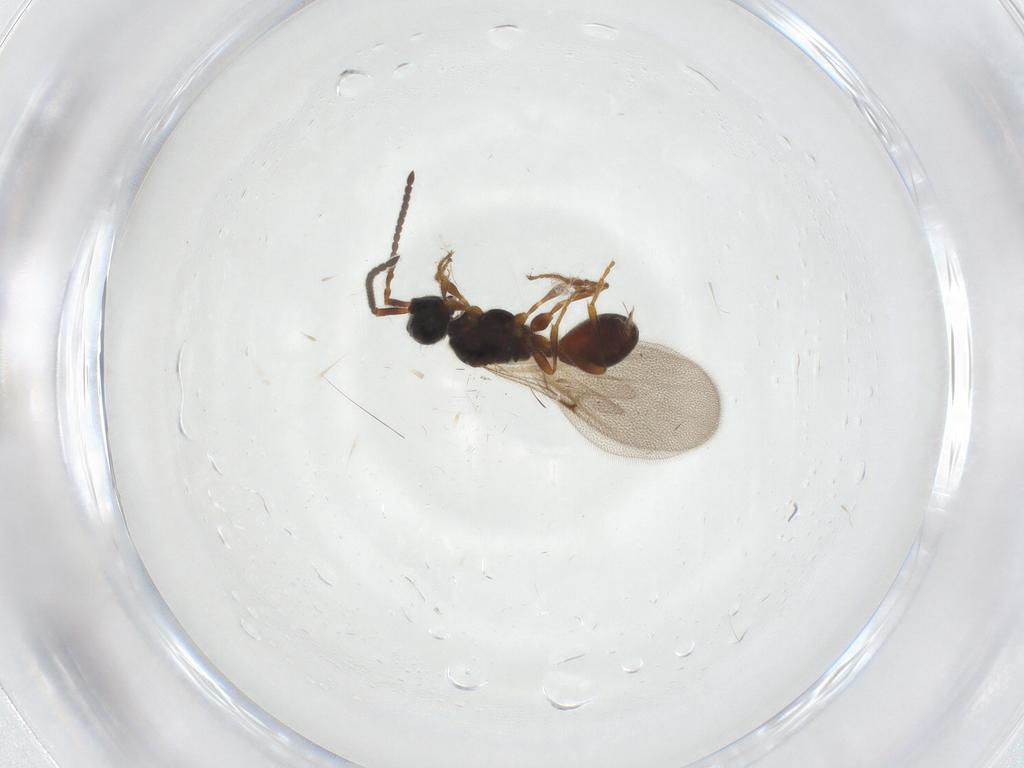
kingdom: Animalia
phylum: Arthropoda
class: Insecta
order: Hymenoptera
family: Diapriidae
